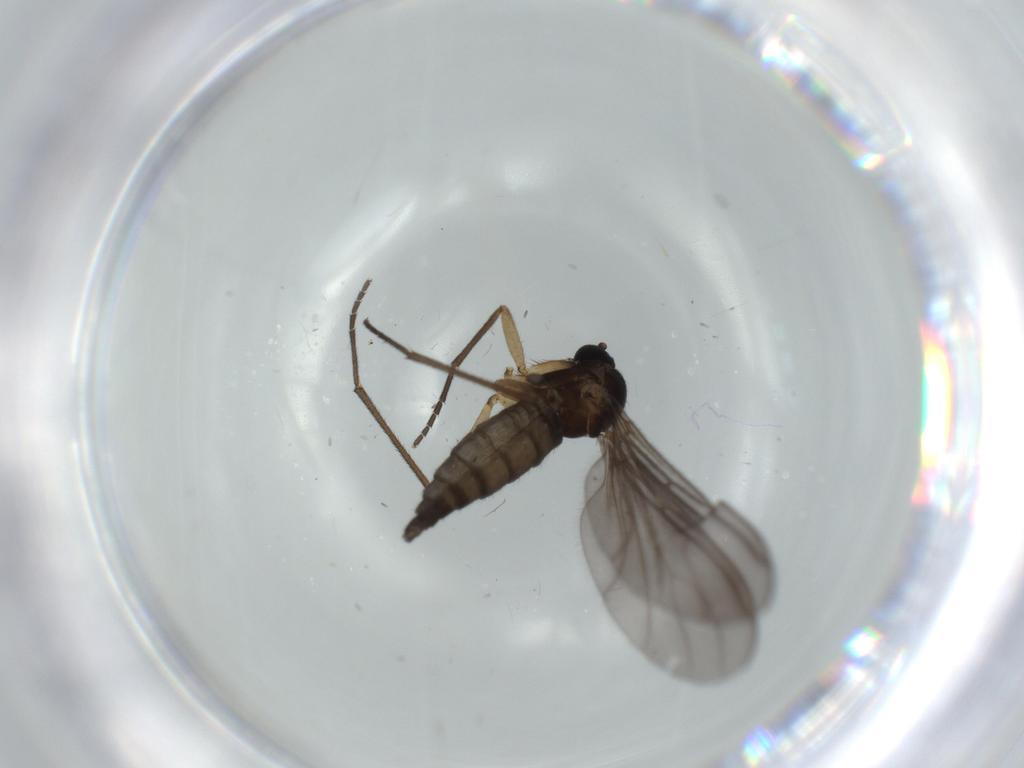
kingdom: Animalia
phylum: Arthropoda
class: Insecta
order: Diptera
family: Sciaridae
